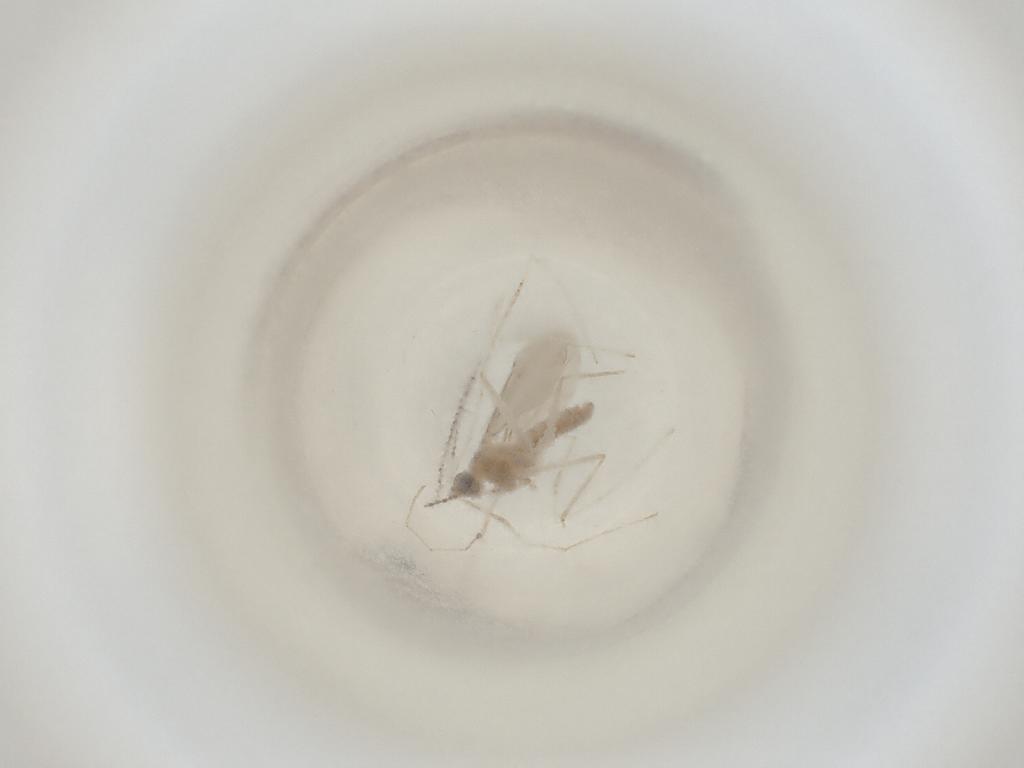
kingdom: Animalia
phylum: Arthropoda
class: Insecta
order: Diptera
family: Cecidomyiidae
